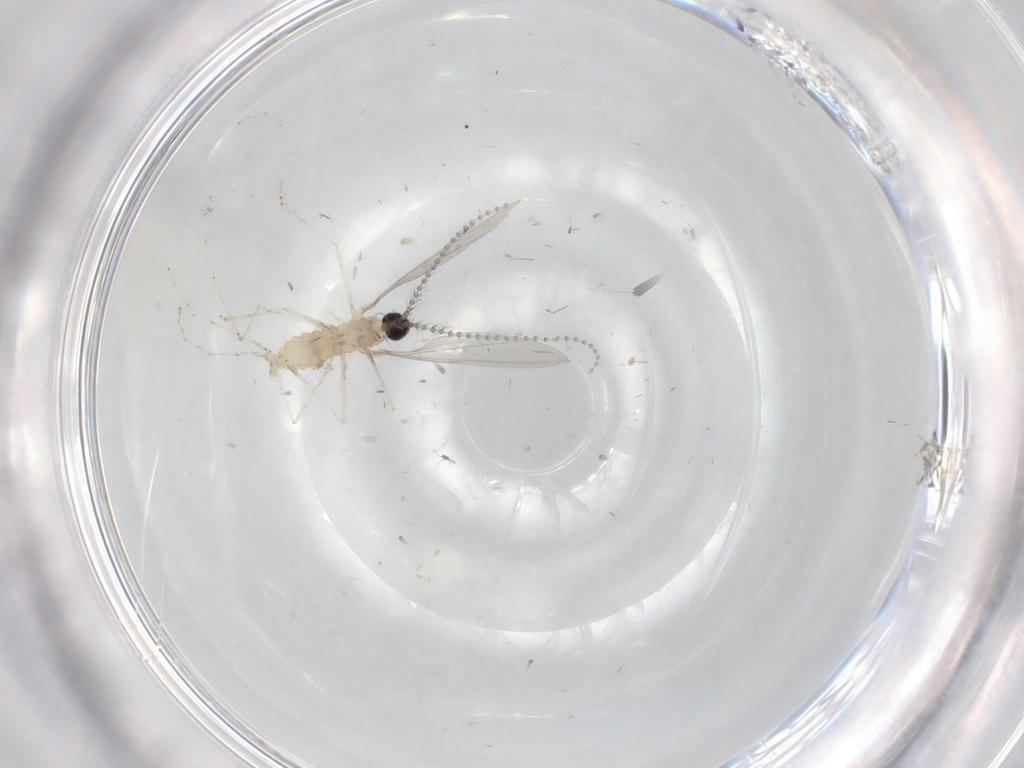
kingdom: Animalia
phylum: Arthropoda
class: Insecta
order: Diptera
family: Cecidomyiidae
